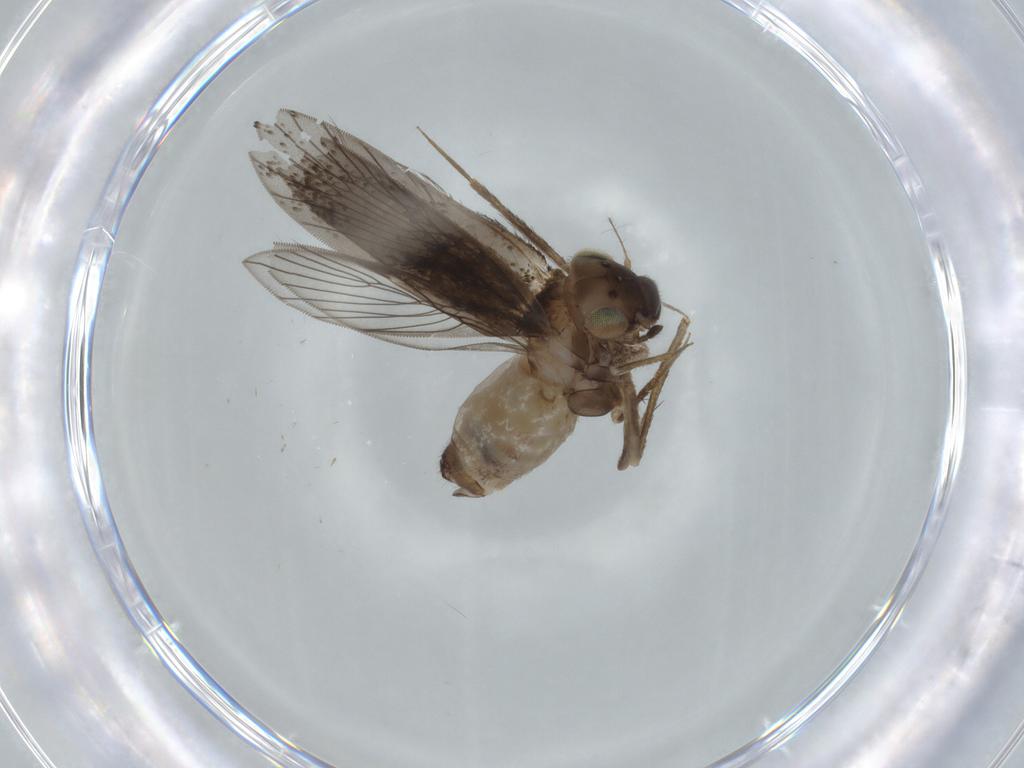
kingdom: Animalia
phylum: Arthropoda
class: Insecta
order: Psocodea
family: Lepidopsocidae
